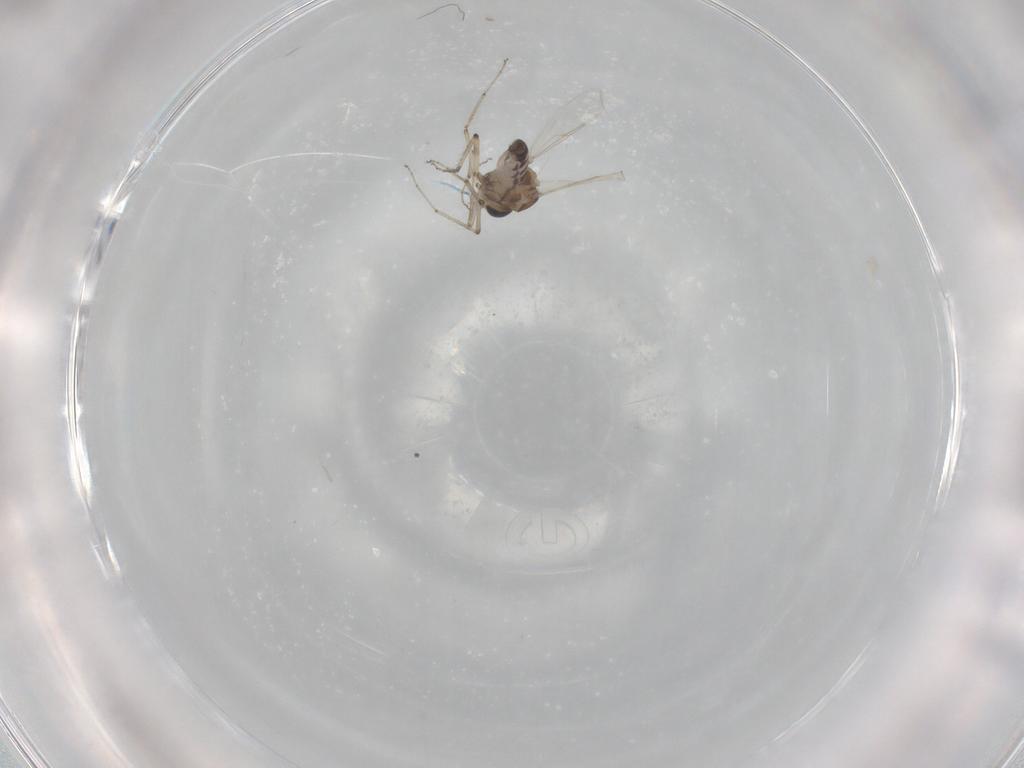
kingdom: Animalia
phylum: Arthropoda
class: Insecta
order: Diptera
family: Ceratopogonidae
